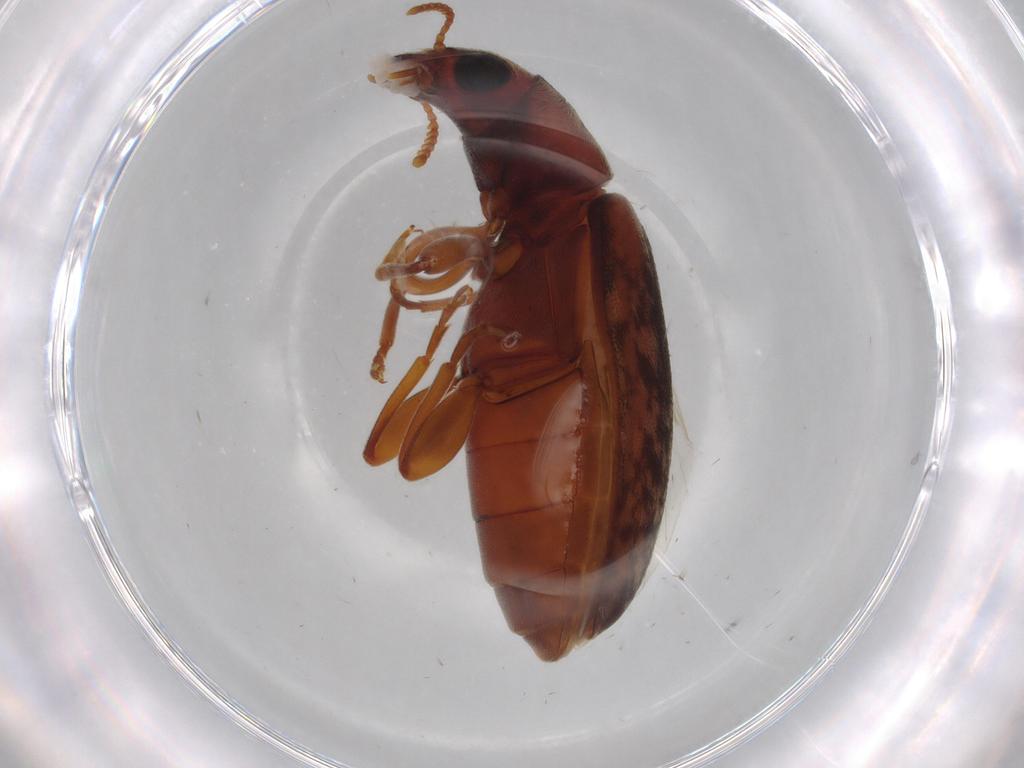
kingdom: Animalia
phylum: Arthropoda
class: Insecta
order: Coleoptera
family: Mycteridae
